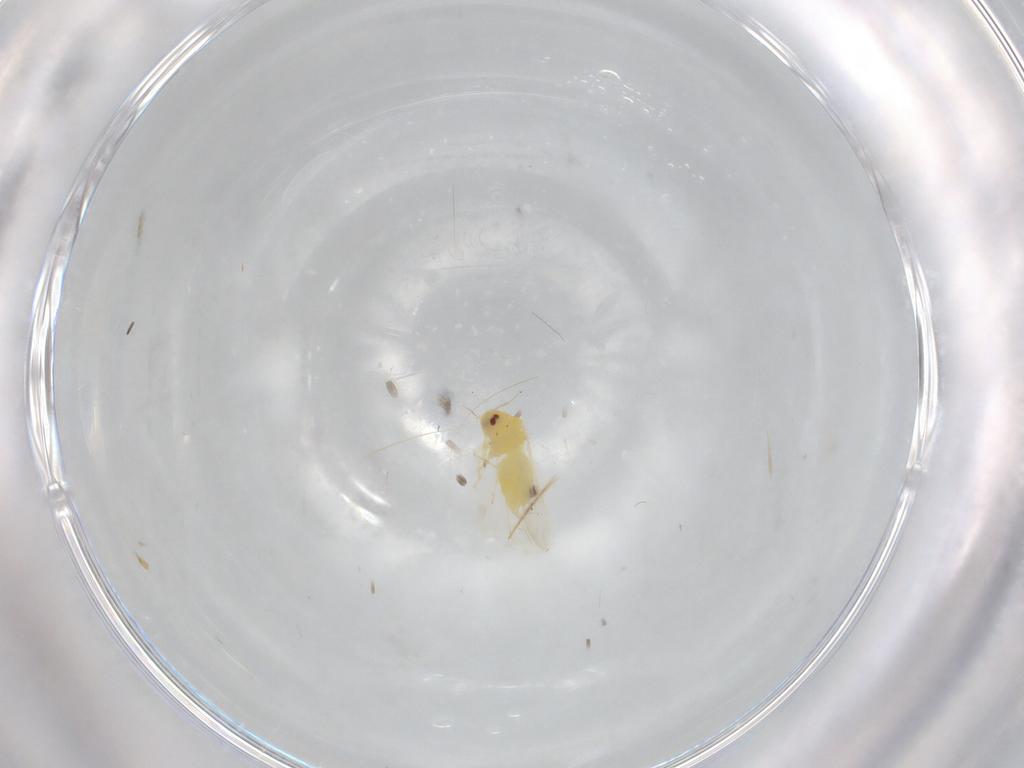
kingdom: Animalia
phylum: Arthropoda
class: Insecta
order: Hemiptera
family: Aleyrodidae
